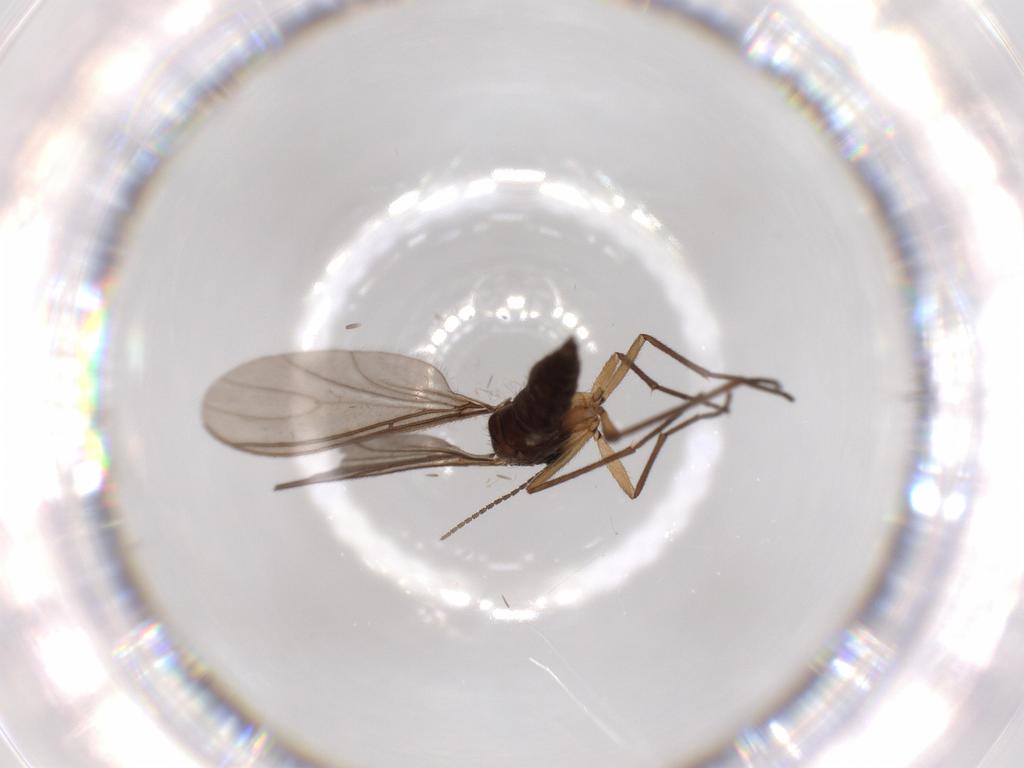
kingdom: Animalia
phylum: Arthropoda
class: Insecta
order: Diptera
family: Sciaridae
